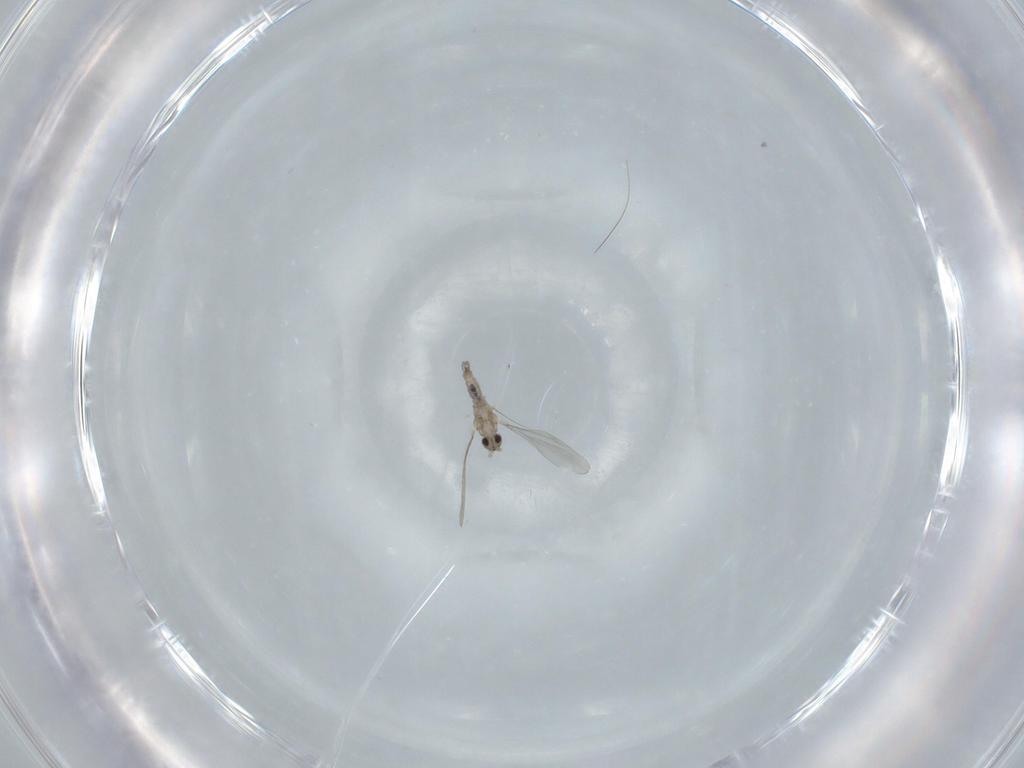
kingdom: Animalia
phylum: Arthropoda
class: Insecta
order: Diptera
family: Cecidomyiidae
